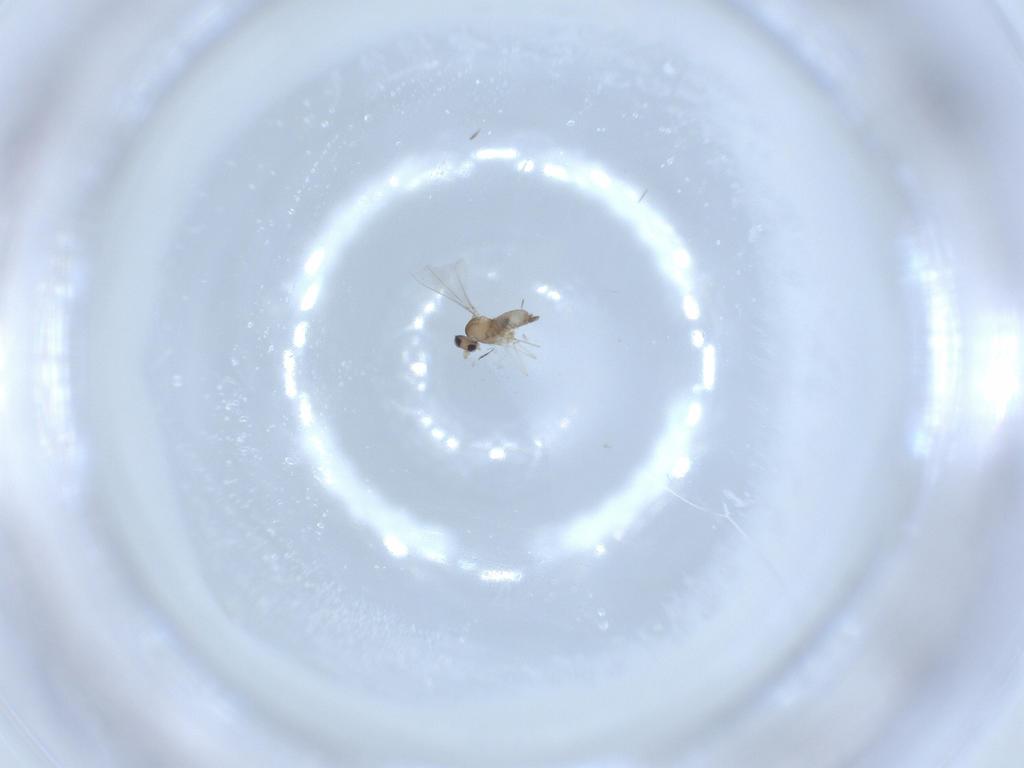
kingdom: Animalia
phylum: Arthropoda
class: Insecta
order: Diptera
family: Cecidomyiidae
